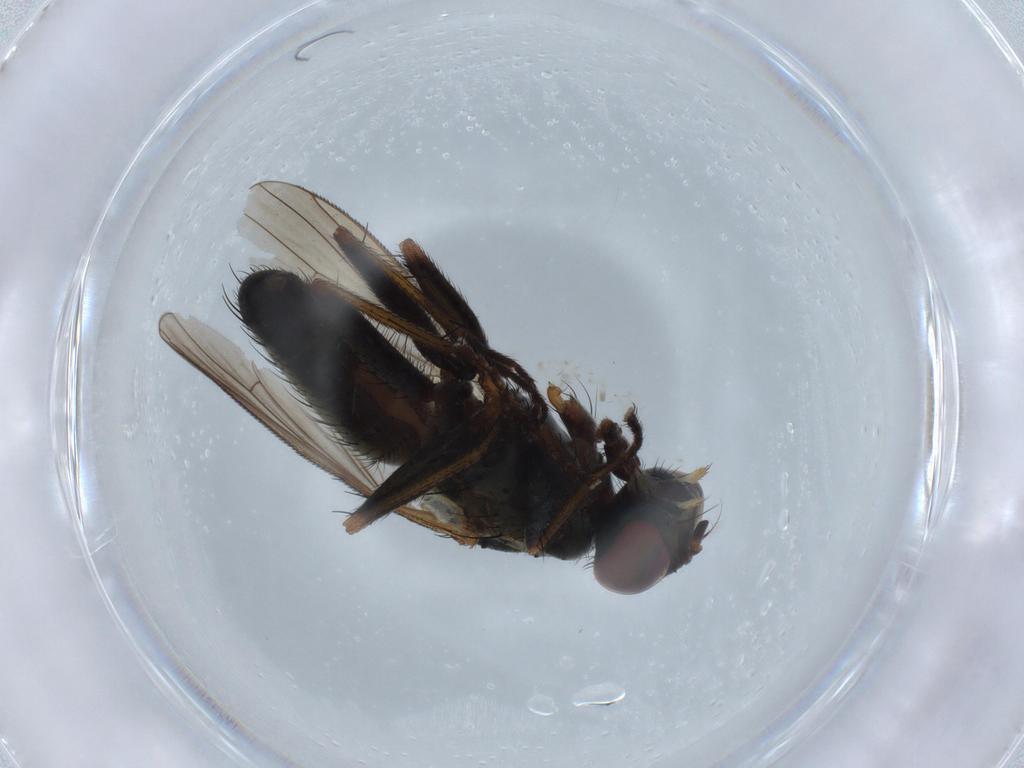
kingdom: Animalia
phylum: Arthropoda
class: Insecta
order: Diptera
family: Muscidae
